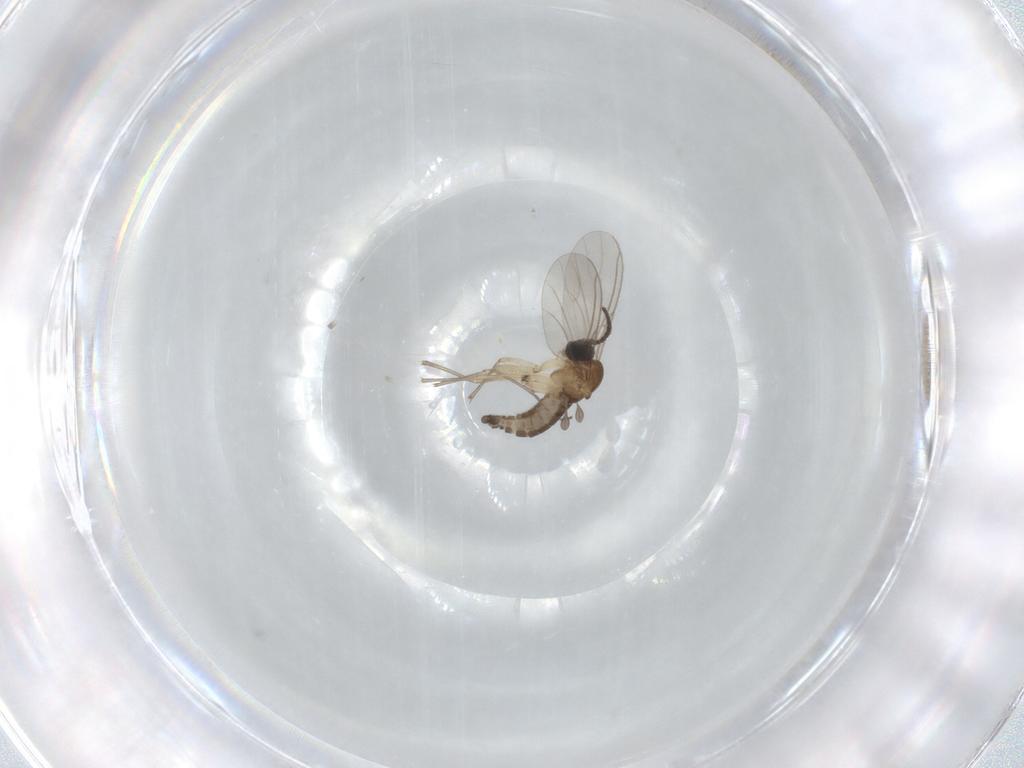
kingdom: Animalia
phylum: Arthropoda
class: Insecta
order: Diptera
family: Sciaridae
